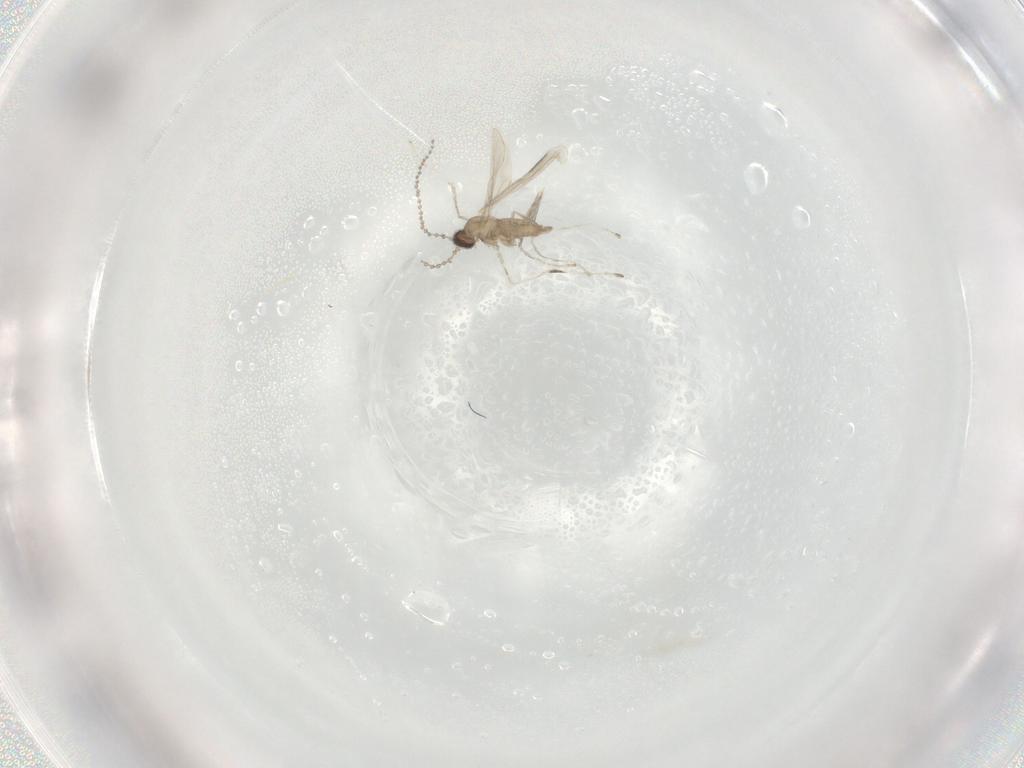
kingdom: Animalia
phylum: Arthropoda
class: Insecta
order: Diptera
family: Cecidomyiidae
